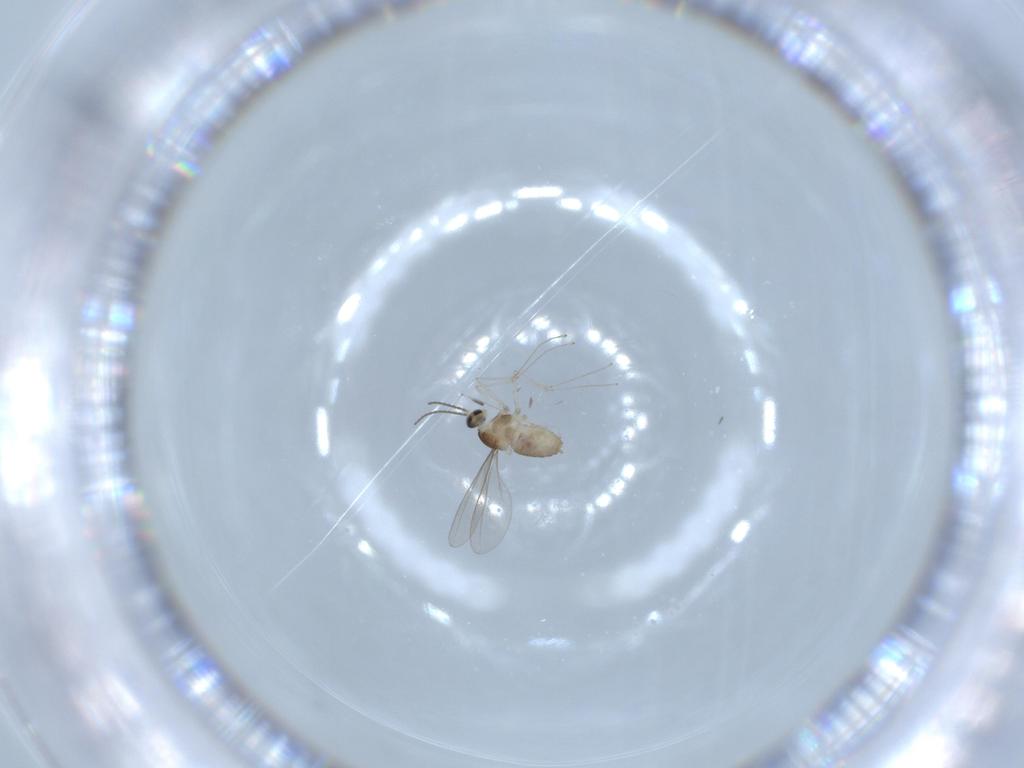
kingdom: Animalia
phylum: Arthropoda
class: Insecta
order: Diptera
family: Cecidomyiidae
